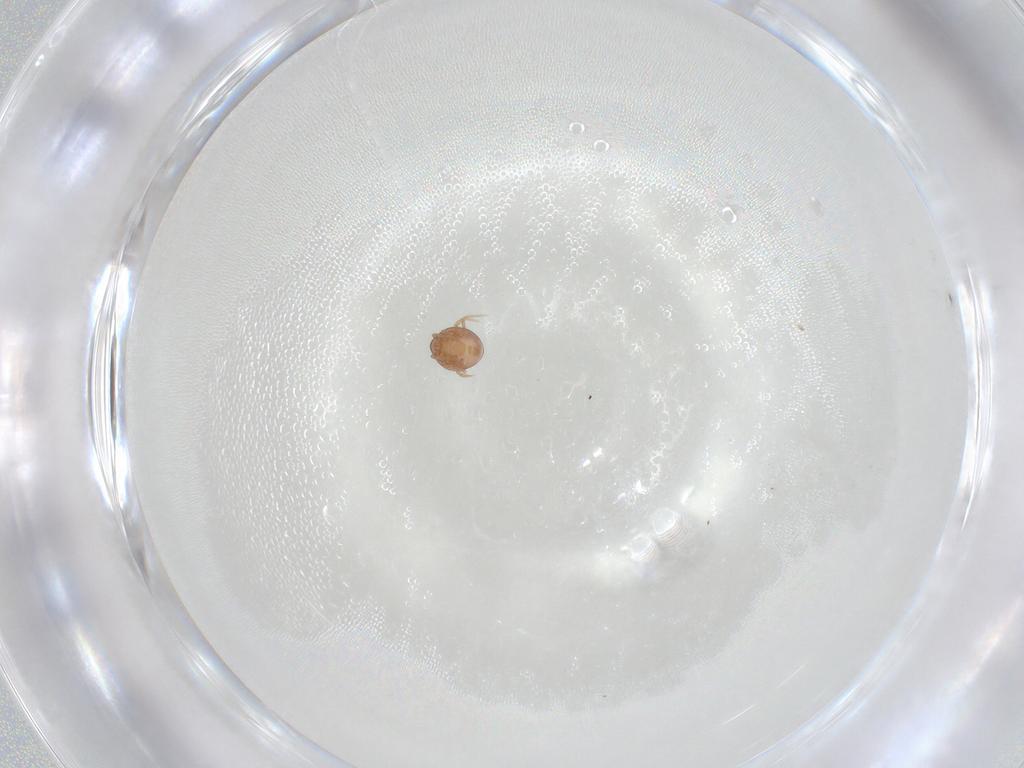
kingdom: Animalia
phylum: Arthropoda
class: Arachnida
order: Mesostigmata
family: Phytoseiidae
